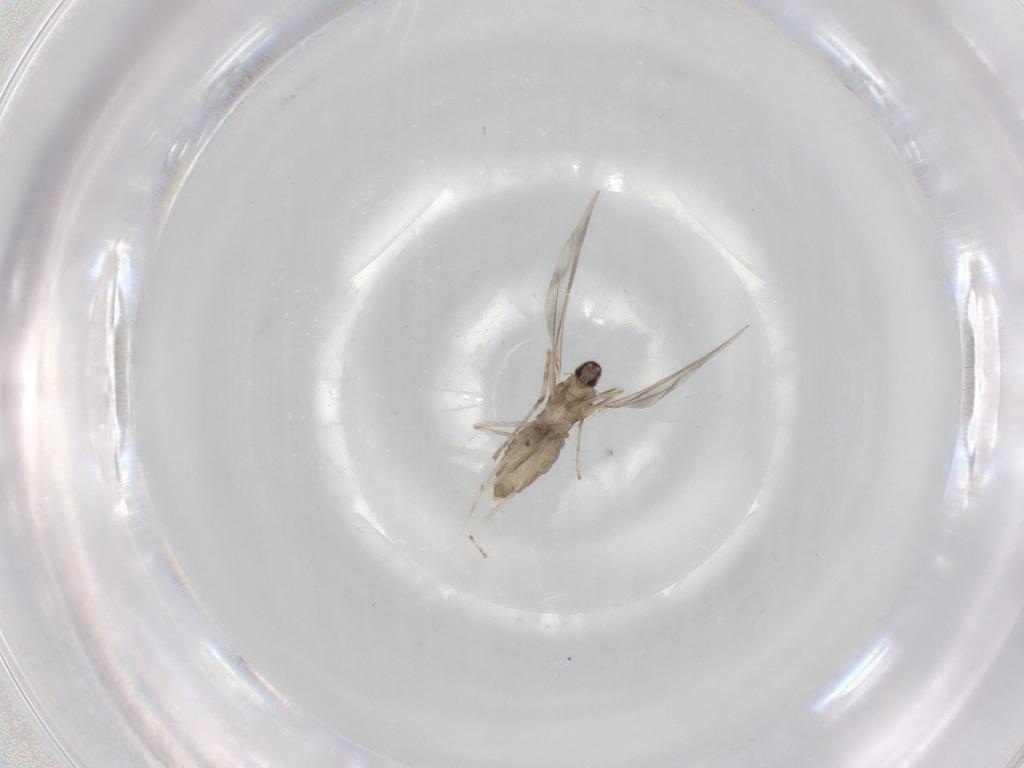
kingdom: Animalia
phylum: Arthropoda
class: Insecta
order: Diptera
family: Cecidomyiidae
